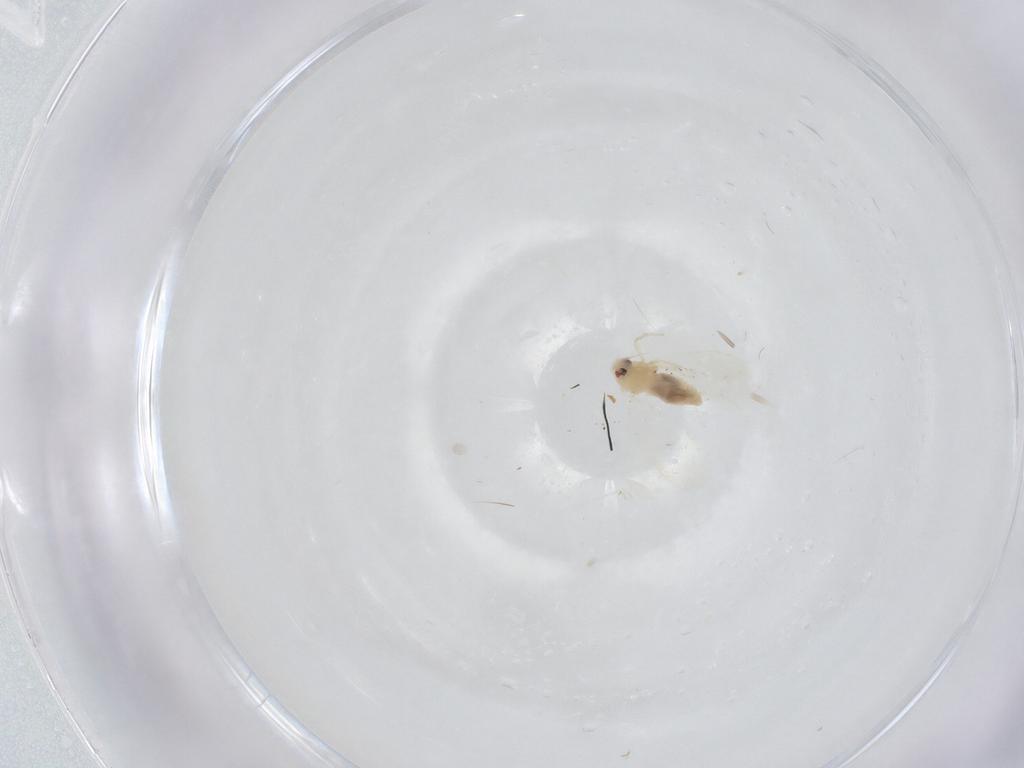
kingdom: Animalia
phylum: Arthropoda
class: Insecta
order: Hemiptera
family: Aleyrodidae
